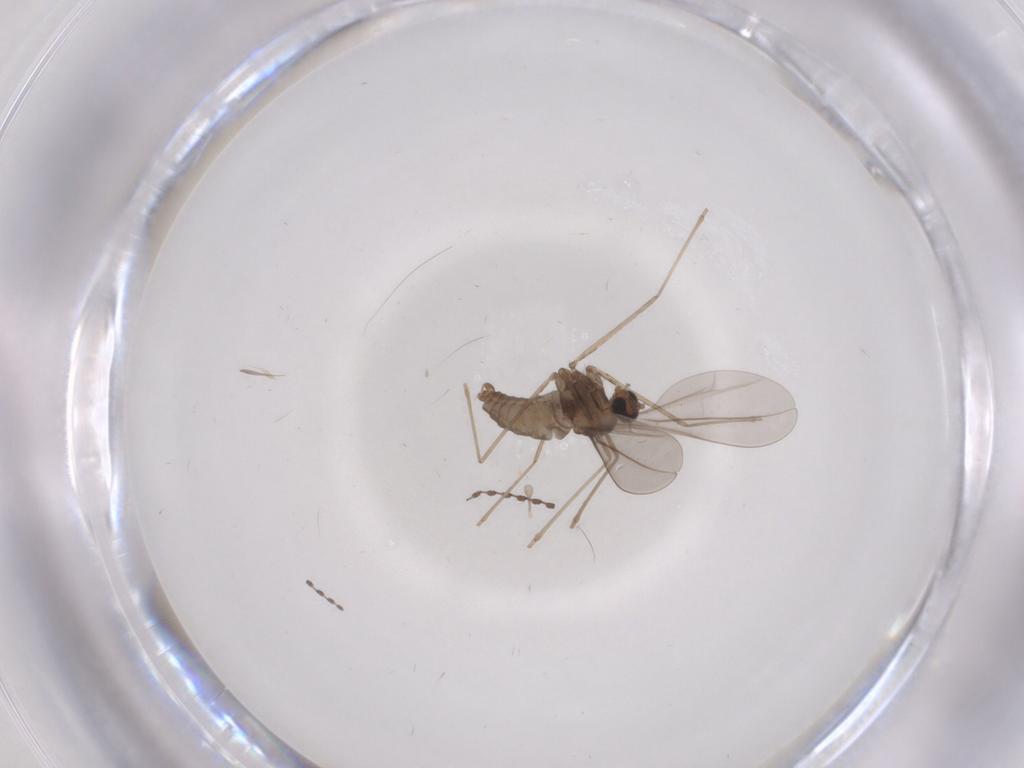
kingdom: Animalia
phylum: Arthropoda
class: Insecta
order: Diptera
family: Cecidomyiidae
